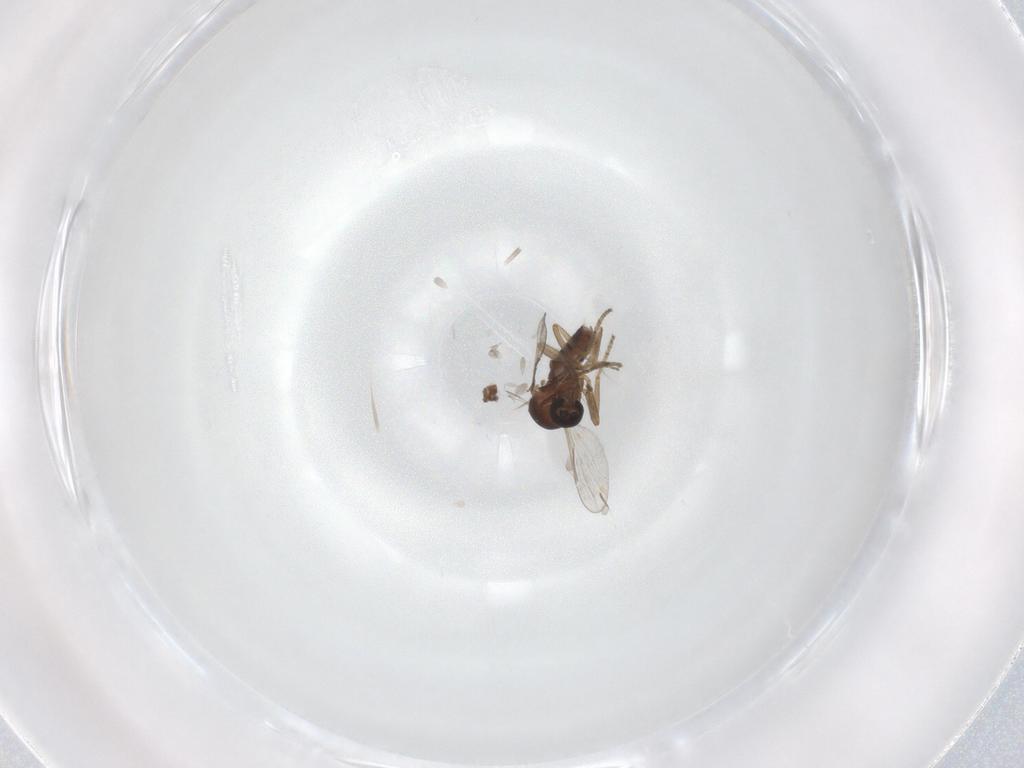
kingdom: Animalia
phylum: Arthropoda
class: Insecta
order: Diptera
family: Ceratopogonidae
